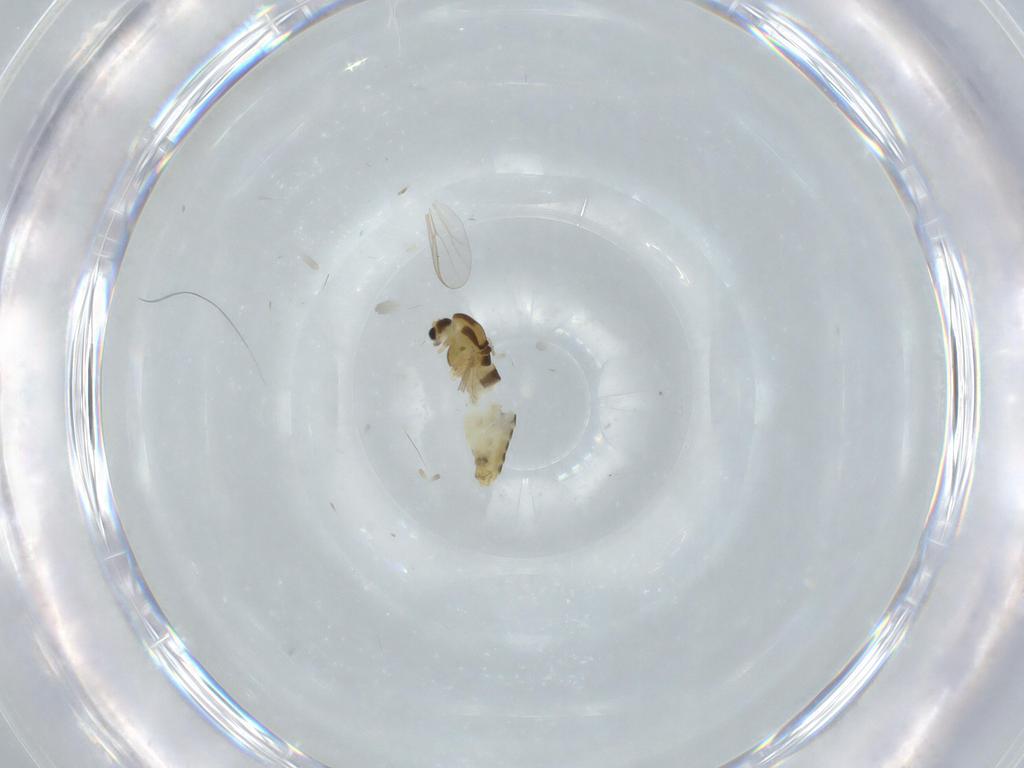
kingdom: Animalia
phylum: Arthropoda
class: Insecta
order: Diptera
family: Chironomidae
